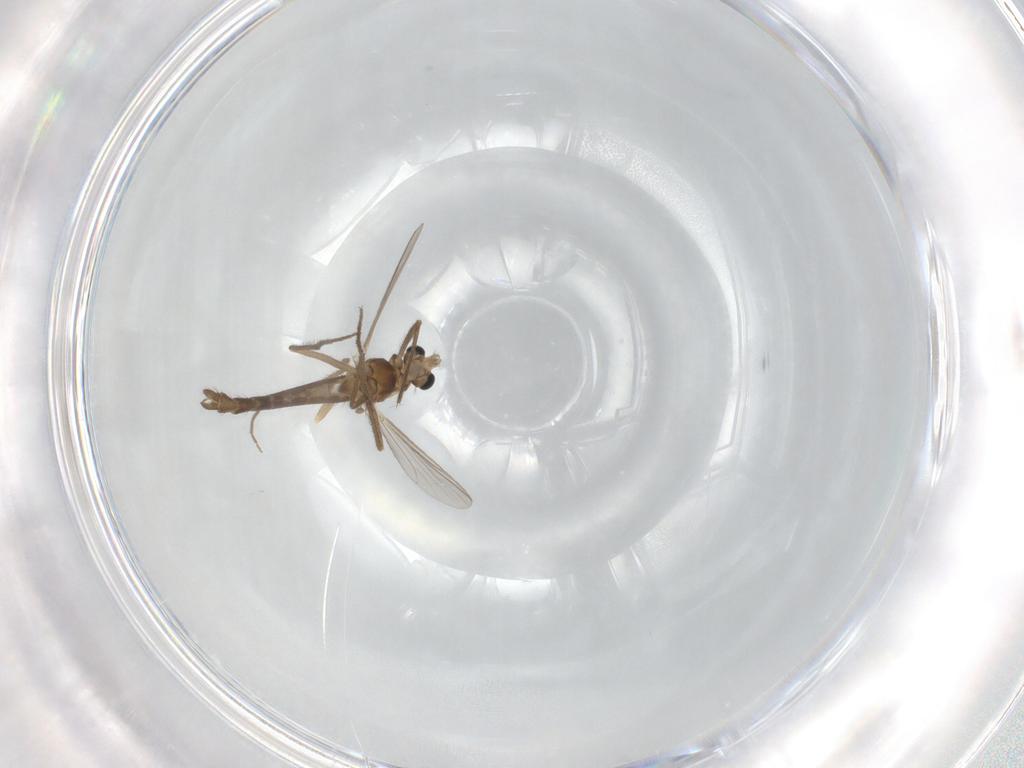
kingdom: Animalia
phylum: Arthropoda
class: Insecta
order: Diptera
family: Chironomidae
